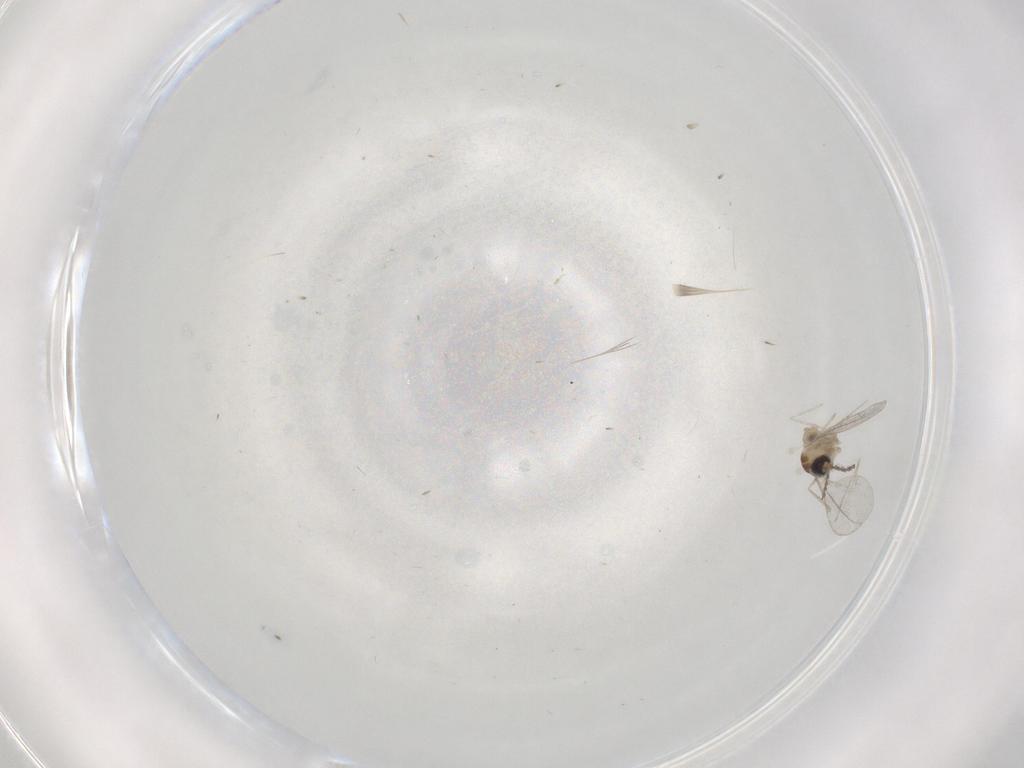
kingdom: Animalia
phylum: Arthropoda
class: Insecta
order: Diptera
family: Cecidomyiidae
